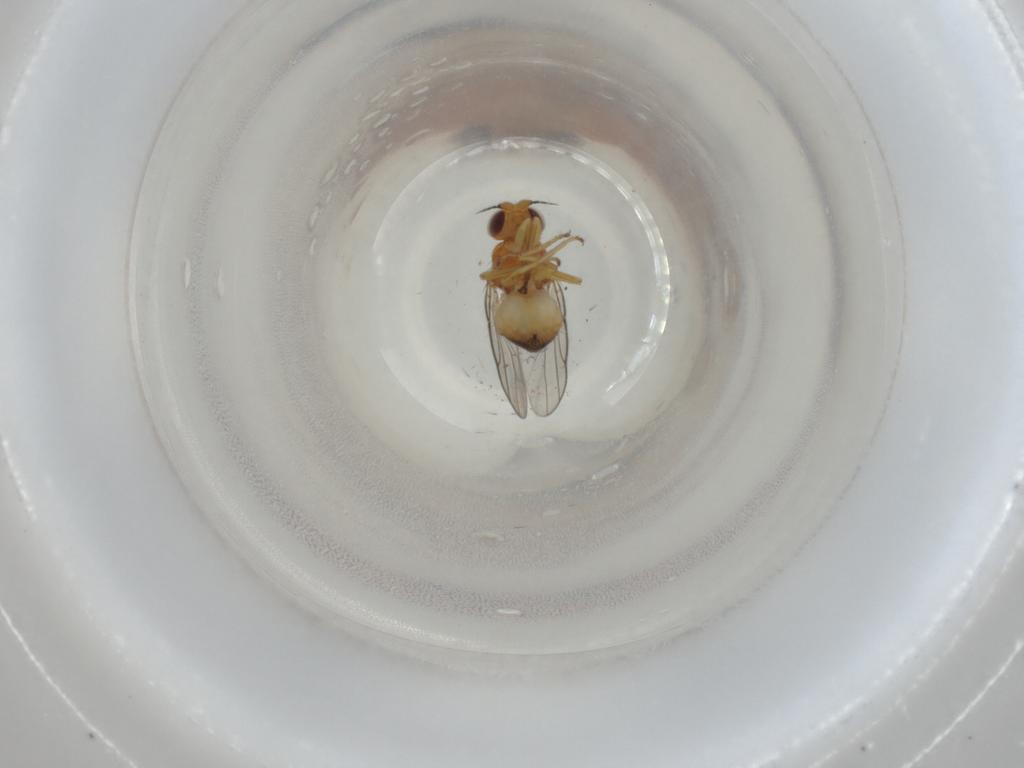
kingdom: Animalia
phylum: Arthropoda
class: Insecta
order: Diptera
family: Chloropidae
